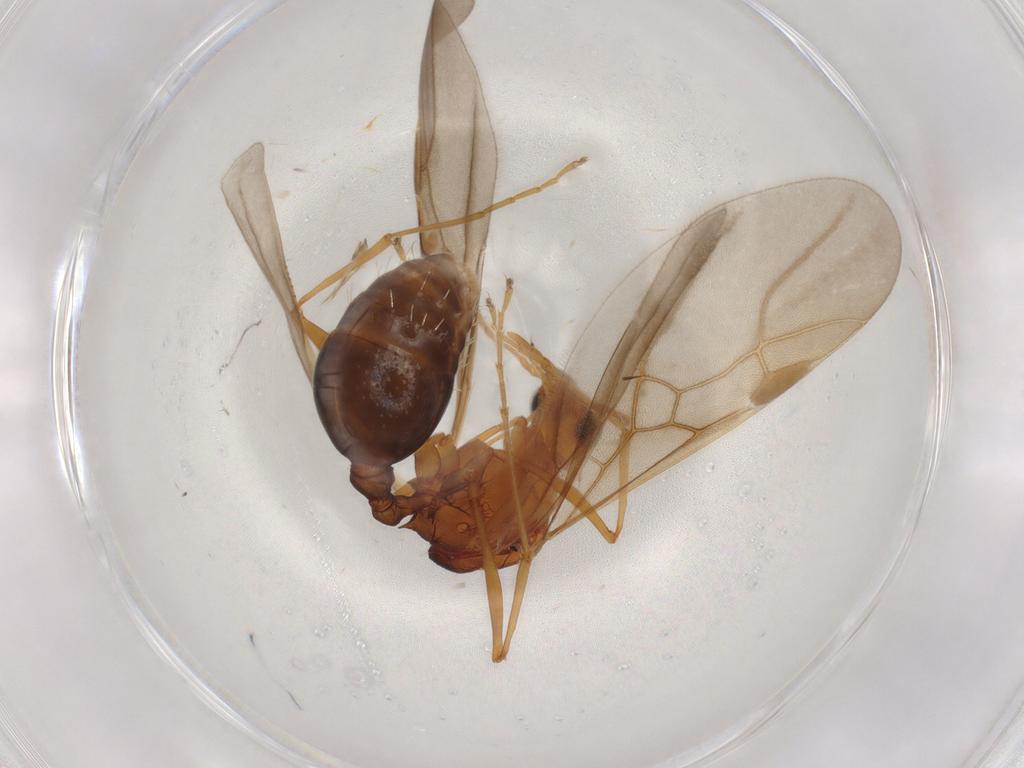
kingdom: Animalia
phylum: Arthropoda
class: Insecta
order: Hymenoptera
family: Formicidae
